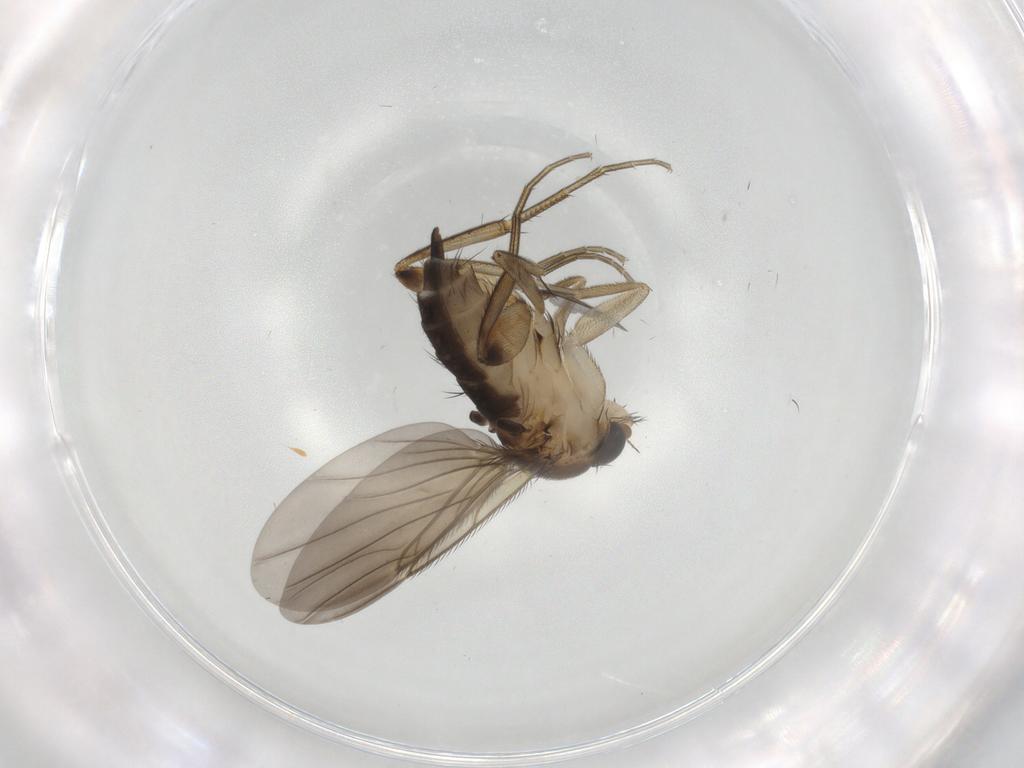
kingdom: Animalia
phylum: Arthropoda
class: Insecta
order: Diptera
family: Phoridae
